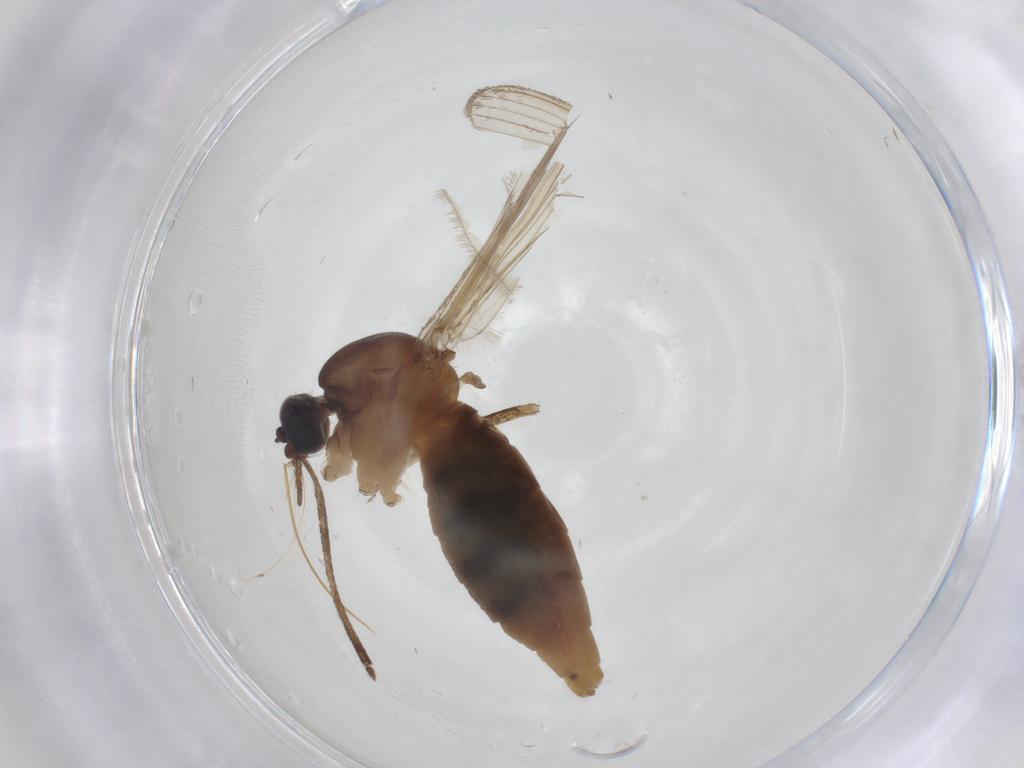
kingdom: Animalia
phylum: Arthropoda
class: Insecta
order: Diptera
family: Culicidae
